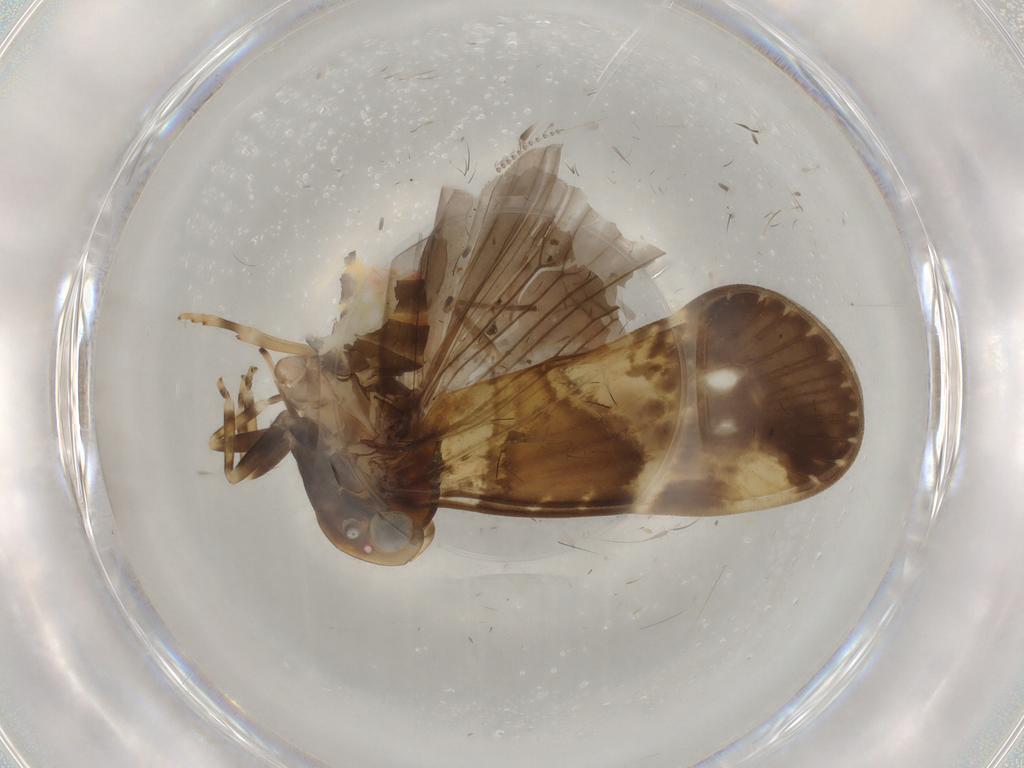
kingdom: Animalia
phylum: Arthropoda
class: Insecta
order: Hemiptera
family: Cixiidae
